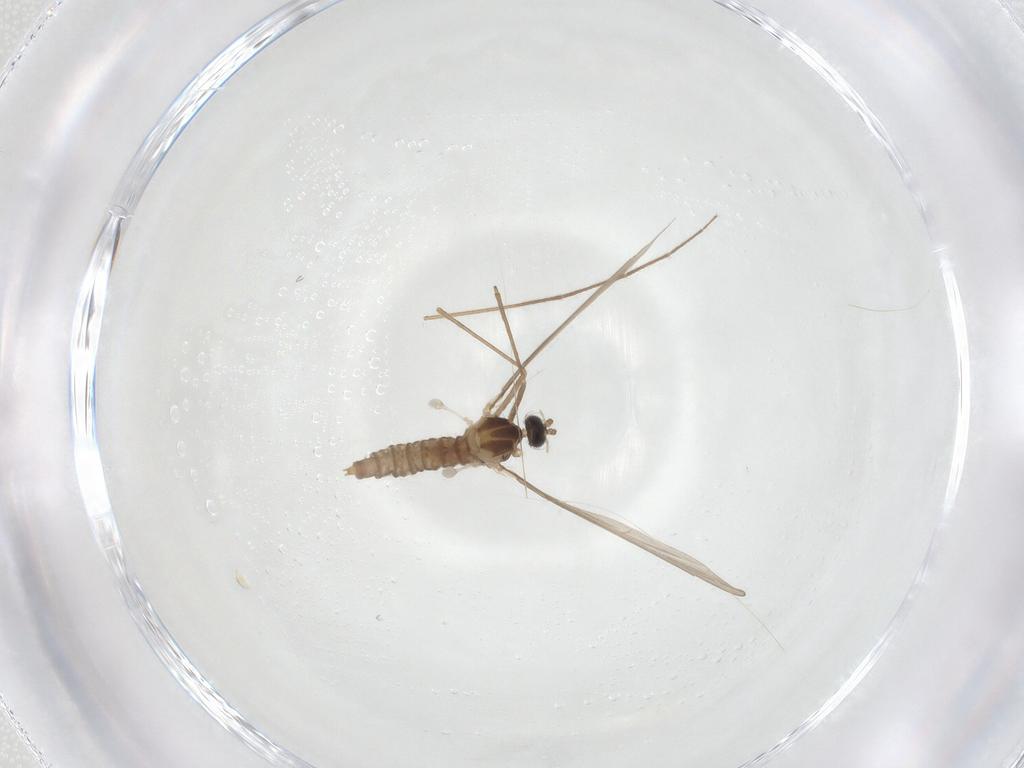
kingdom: Animalia
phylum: Arthropoda
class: Insecta
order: Diptera
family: Cecidomyiidae
